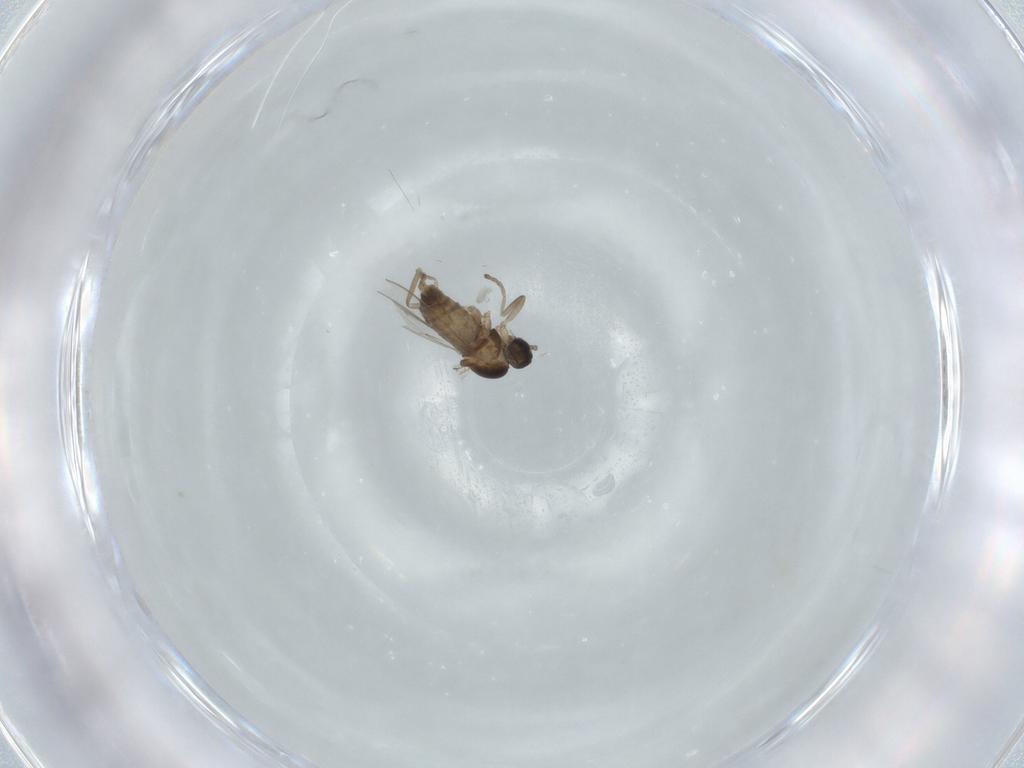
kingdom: Animalia
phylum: Arthropoda
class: Insecta
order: Diptera
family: Cecidomyiidae
